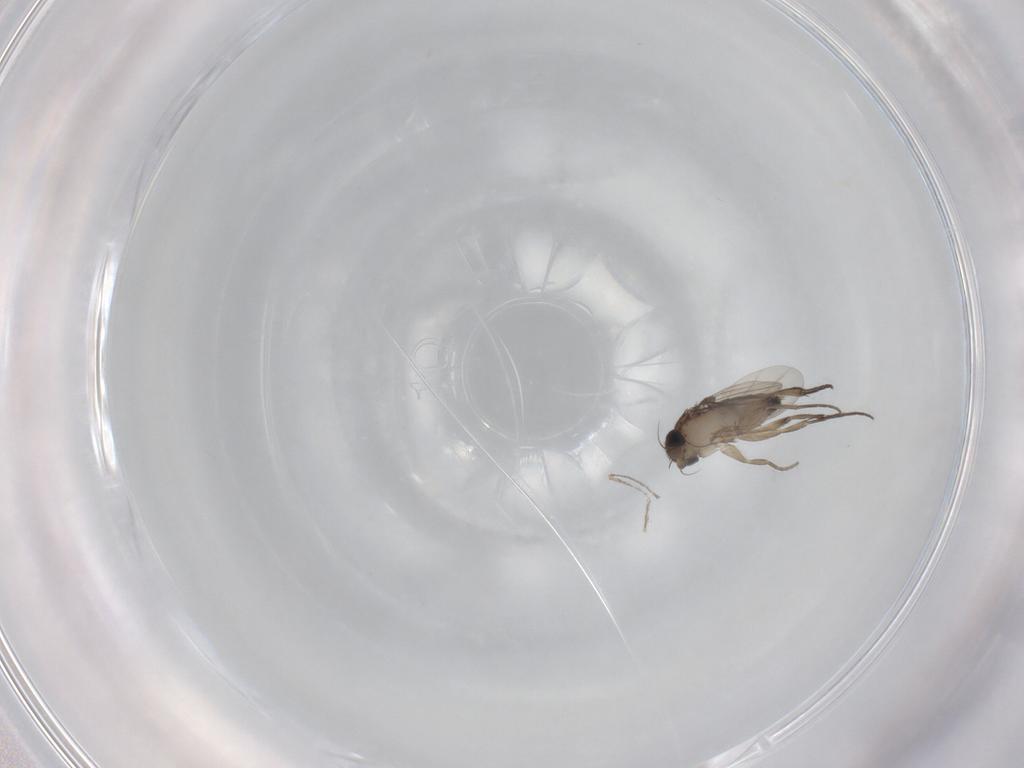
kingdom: Animalia
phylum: Arthropoda
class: Insecta
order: Diptera
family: Phoridae
